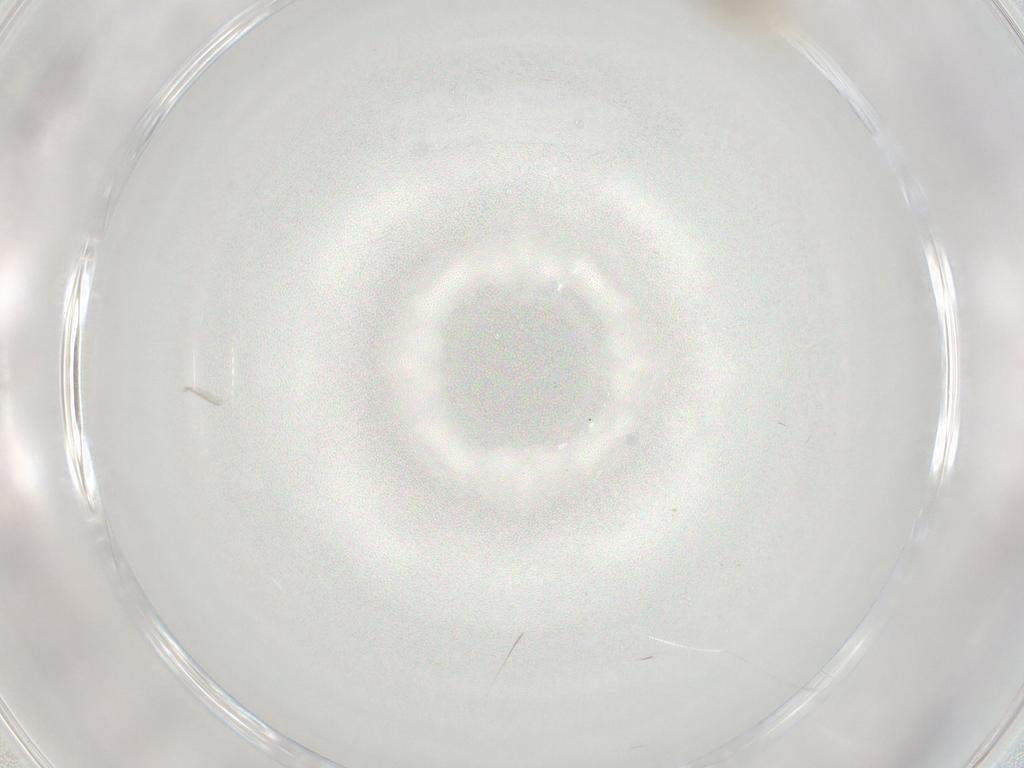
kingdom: Animalia
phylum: Arthropoda
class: Insecta
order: Diptera
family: Cecidomyiidae
